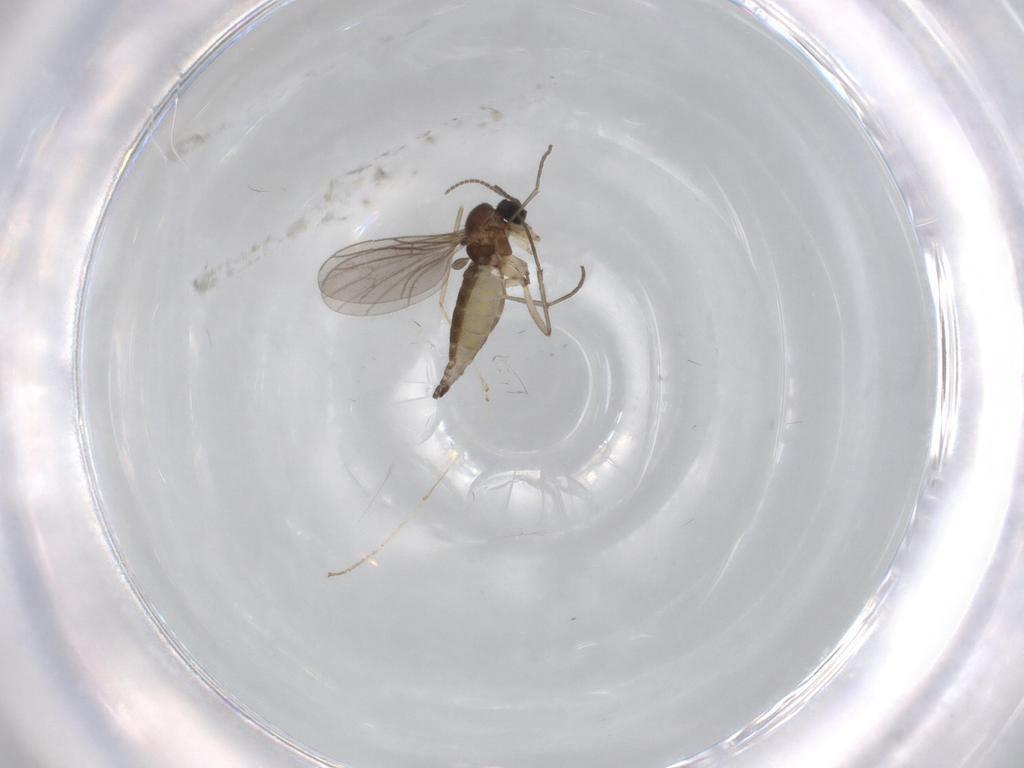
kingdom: Animalia
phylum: Arthropoda
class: Insecta
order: Diptera
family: Sciaridae
